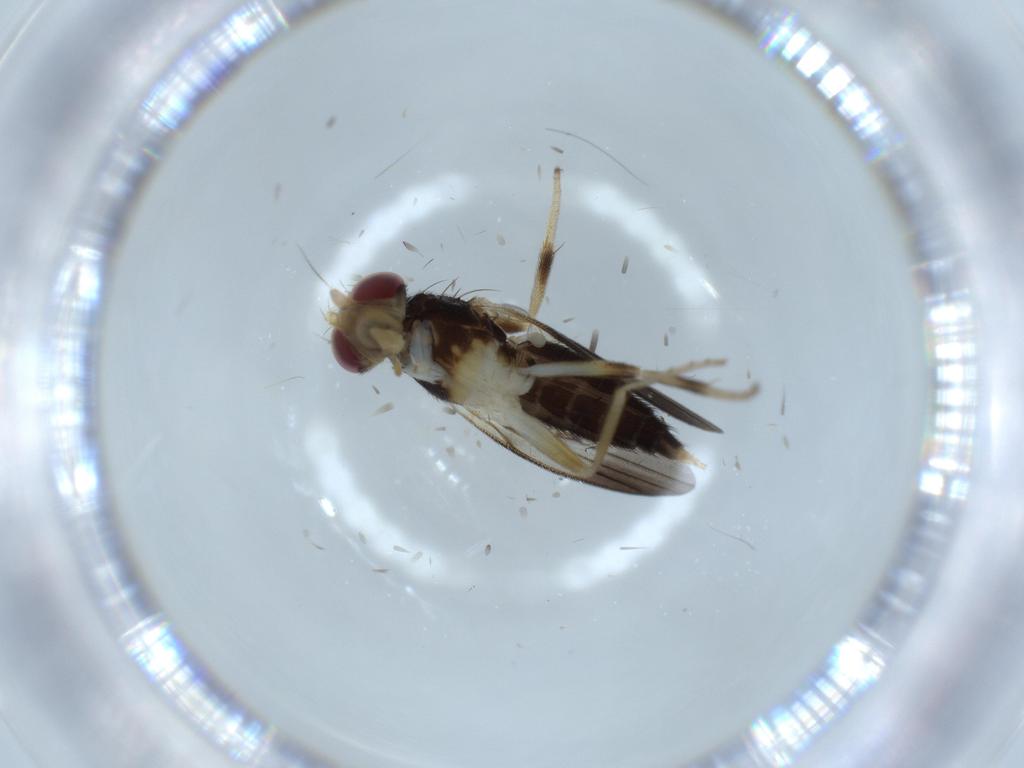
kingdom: Animalia
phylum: Arthropoda
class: Insecta
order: Diptera
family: Clusiidae
